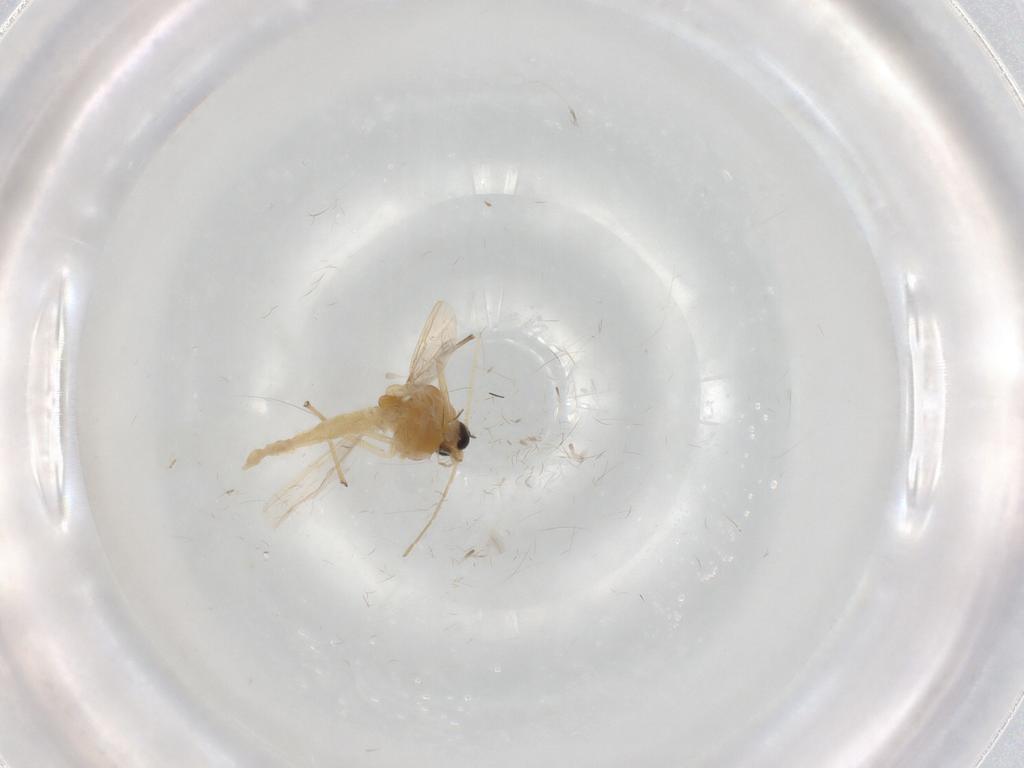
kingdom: Animalia
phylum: Arthropoda
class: Insecta
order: Diptera
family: Chironomidae
